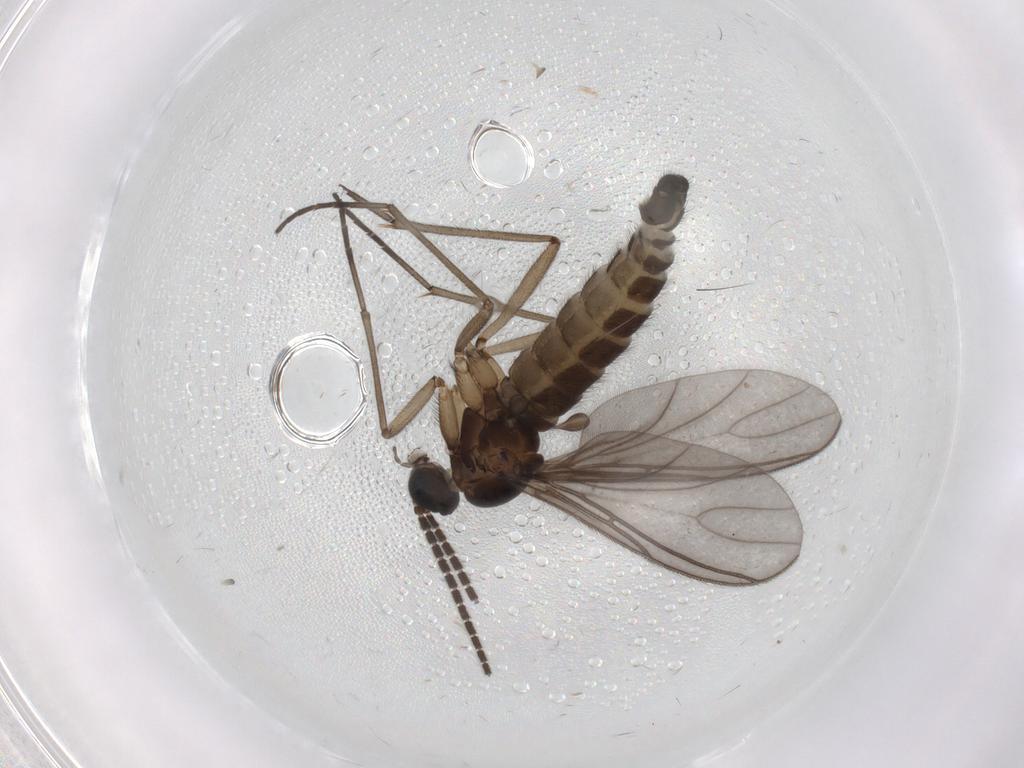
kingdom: Animalia
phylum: Arthropoda
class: Insecta
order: Diptera
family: Sciaridae
